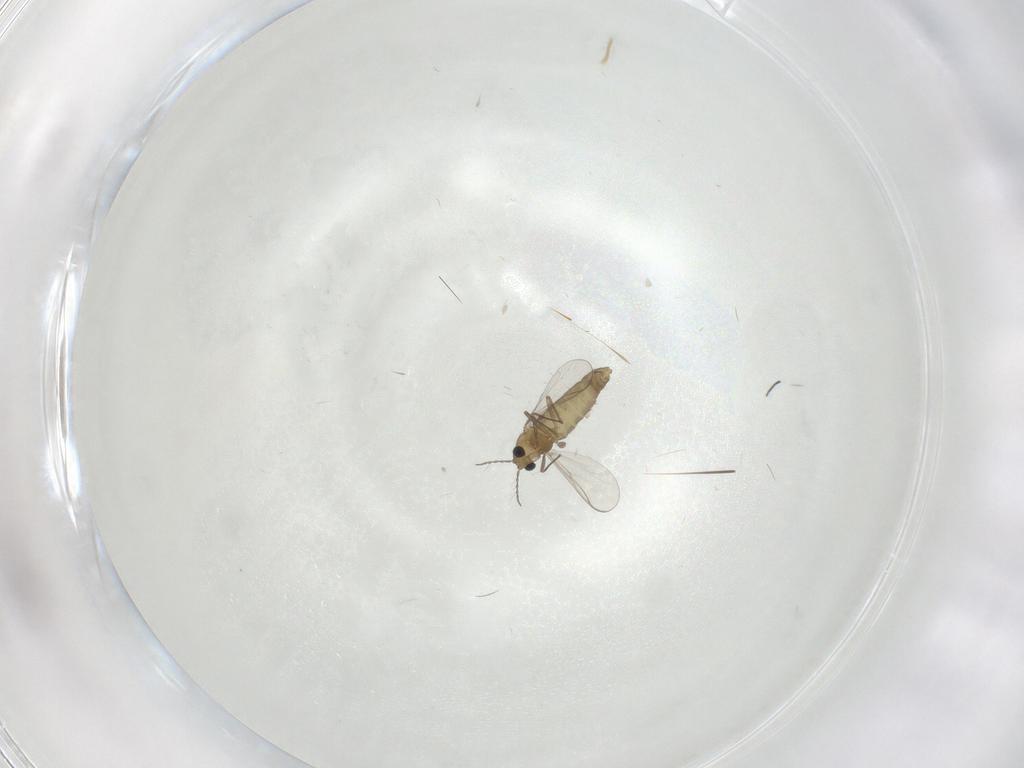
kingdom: Animalia
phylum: Arthropoda
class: Insecta
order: Diptera
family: Chironomidae
